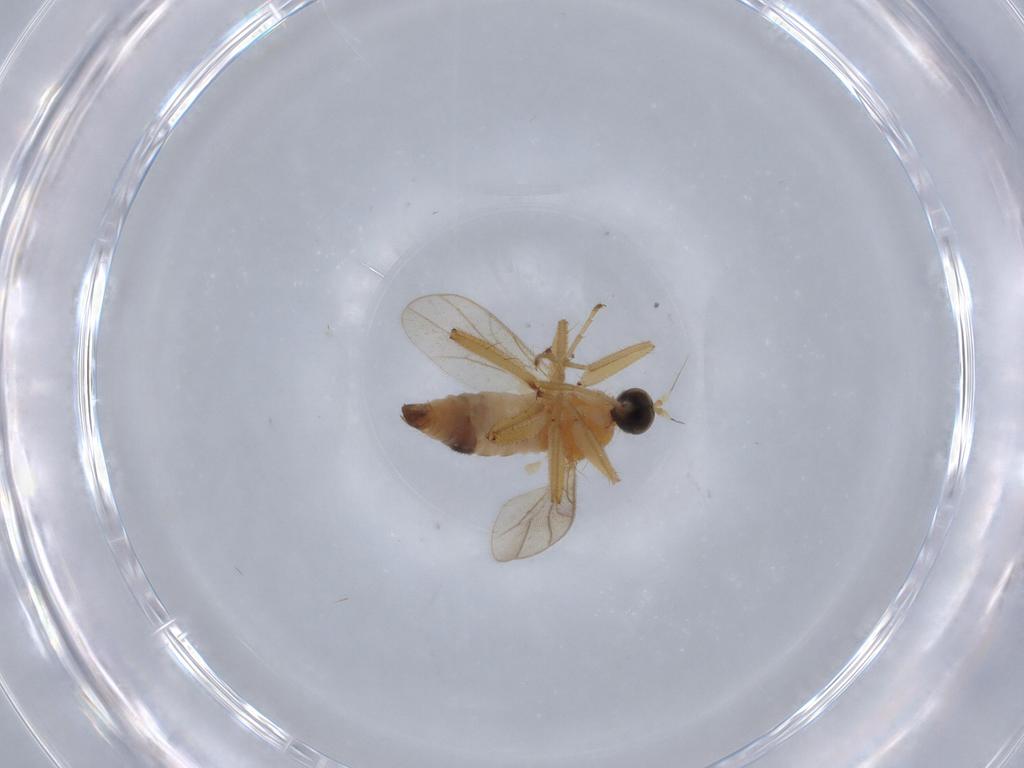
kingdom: Animalia
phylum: Arthropoda
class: Insecta
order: Diptera
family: Hybotidae
